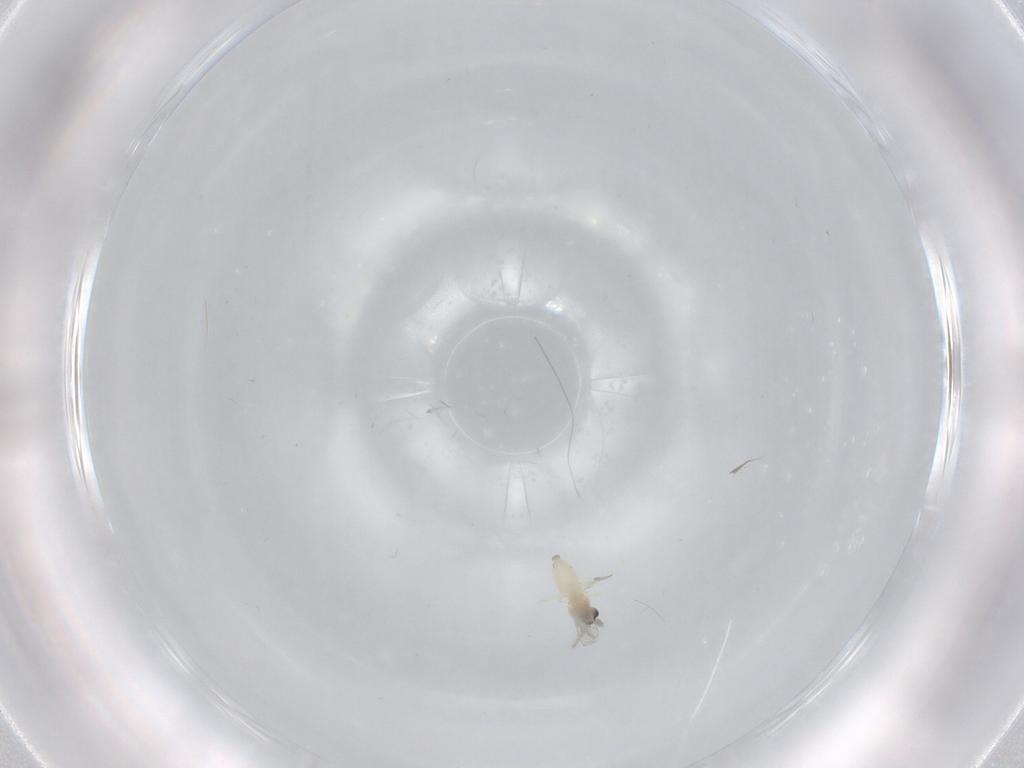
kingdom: Animalia
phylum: Arthropoda
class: Insecta
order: Diptera
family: Cecidomyiidae
